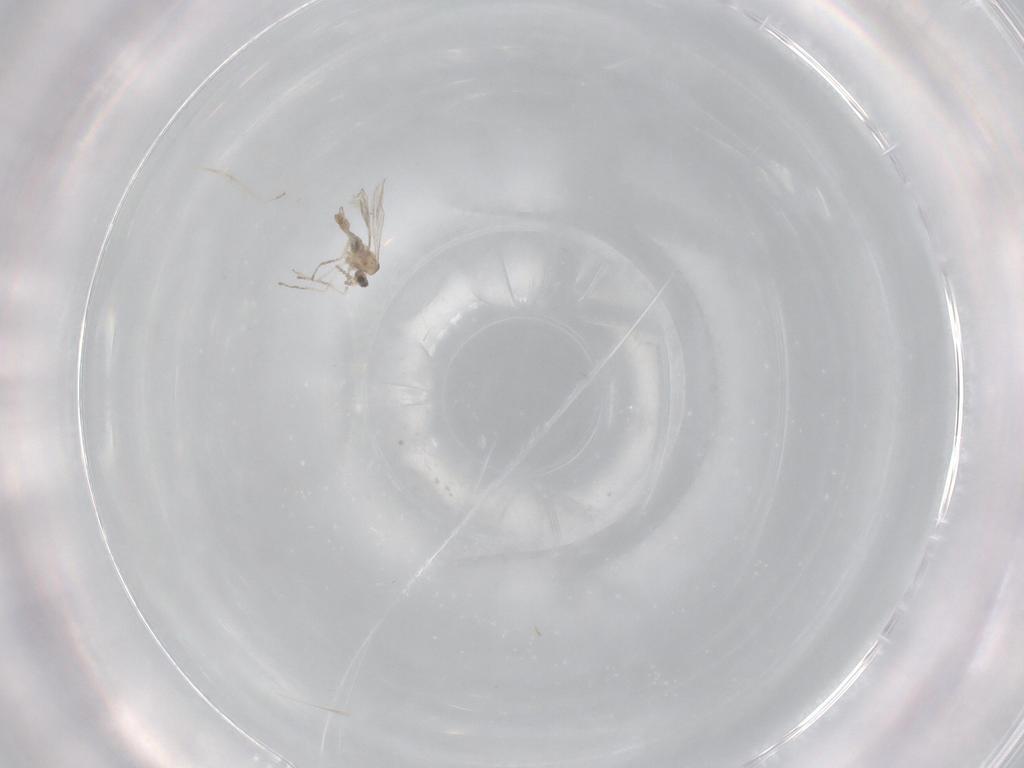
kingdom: Animalia
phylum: Arthropoda
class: Insecta
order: Diptera
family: Cecidomyiidae
